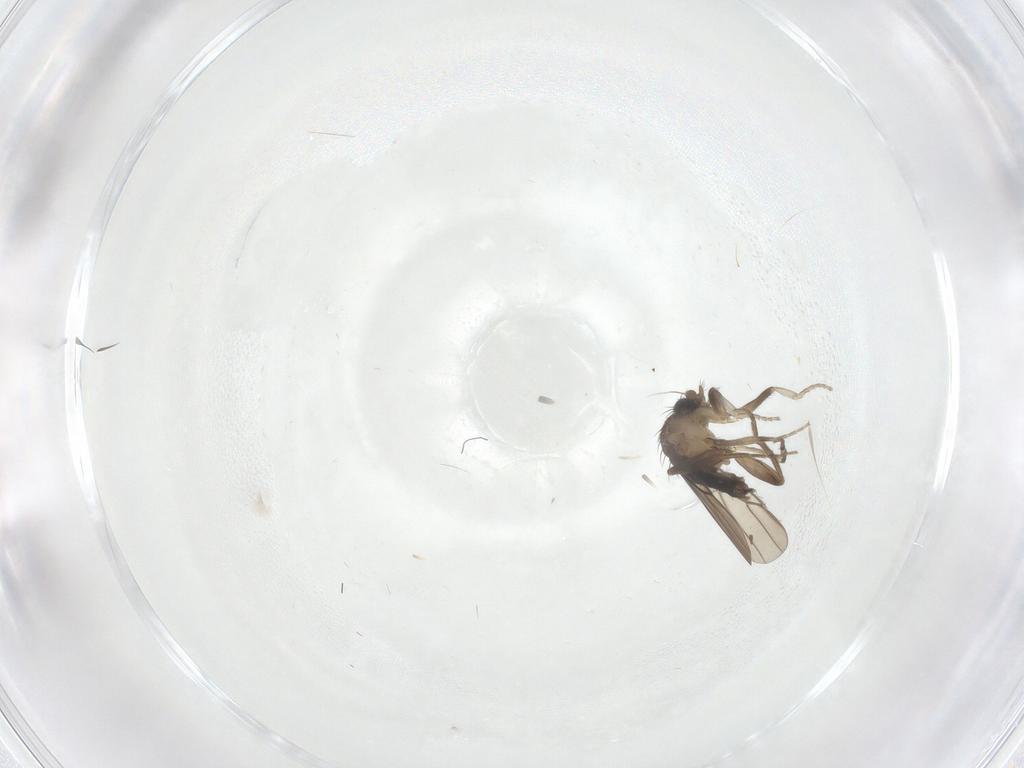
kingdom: Animalia
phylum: Arthropoda
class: Insecta
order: Diptera
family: Phoridae
